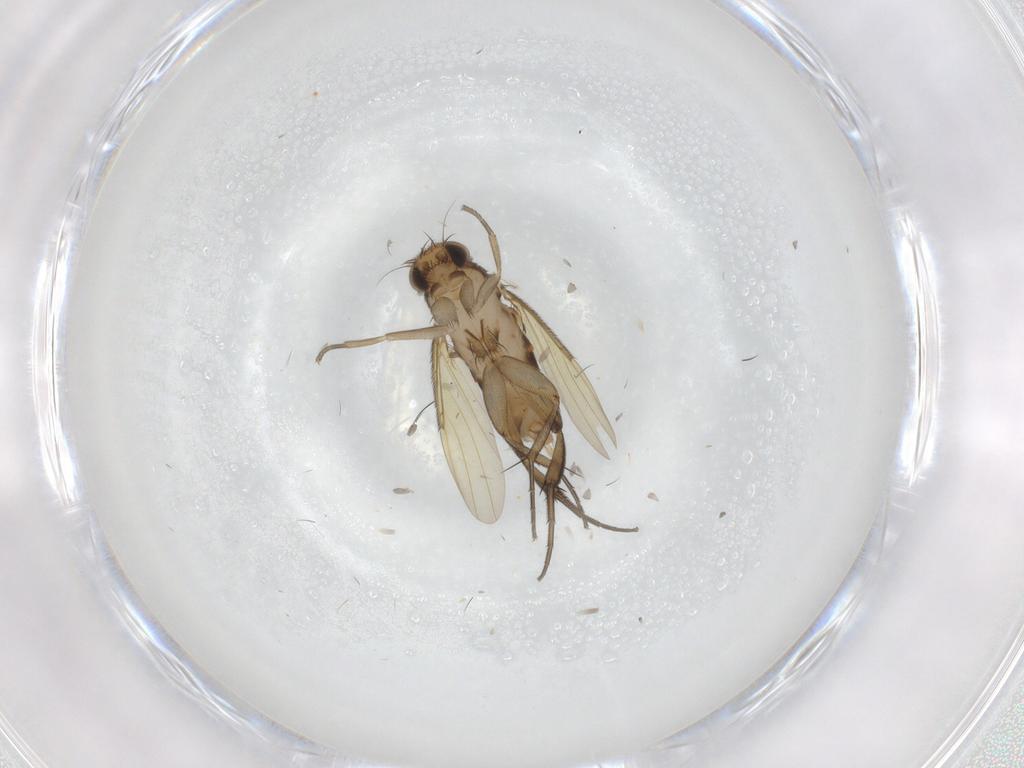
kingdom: Animalia
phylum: Arthropoda
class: Insecta
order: Diptera
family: Phoridae
